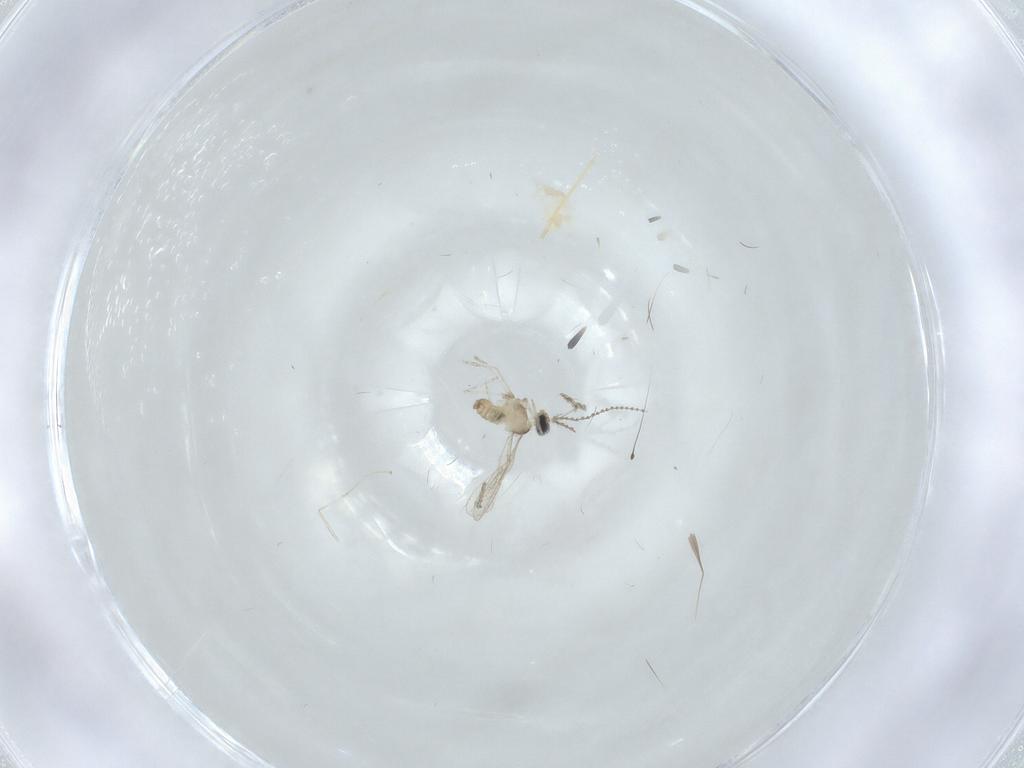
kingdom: Animalia
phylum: Arthropoda
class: Insecta
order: Diptera
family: Cecidomyiidae
